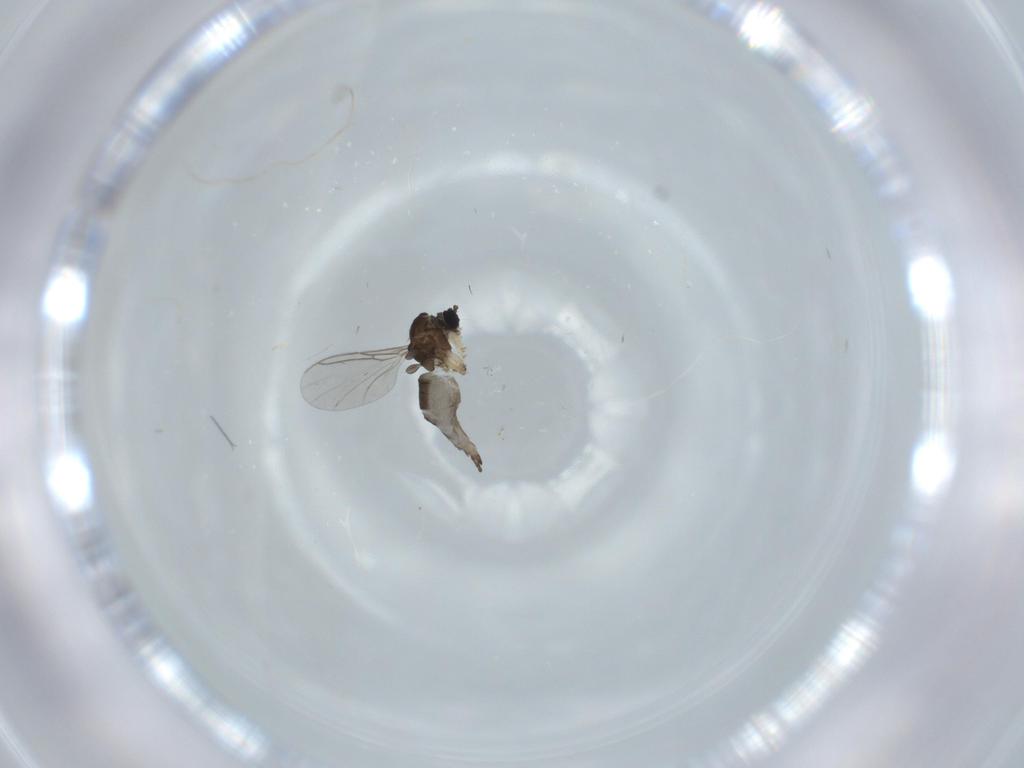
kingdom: Animalia
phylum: Arthropoda
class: Insecta
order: Diptera
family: Sciaridae
